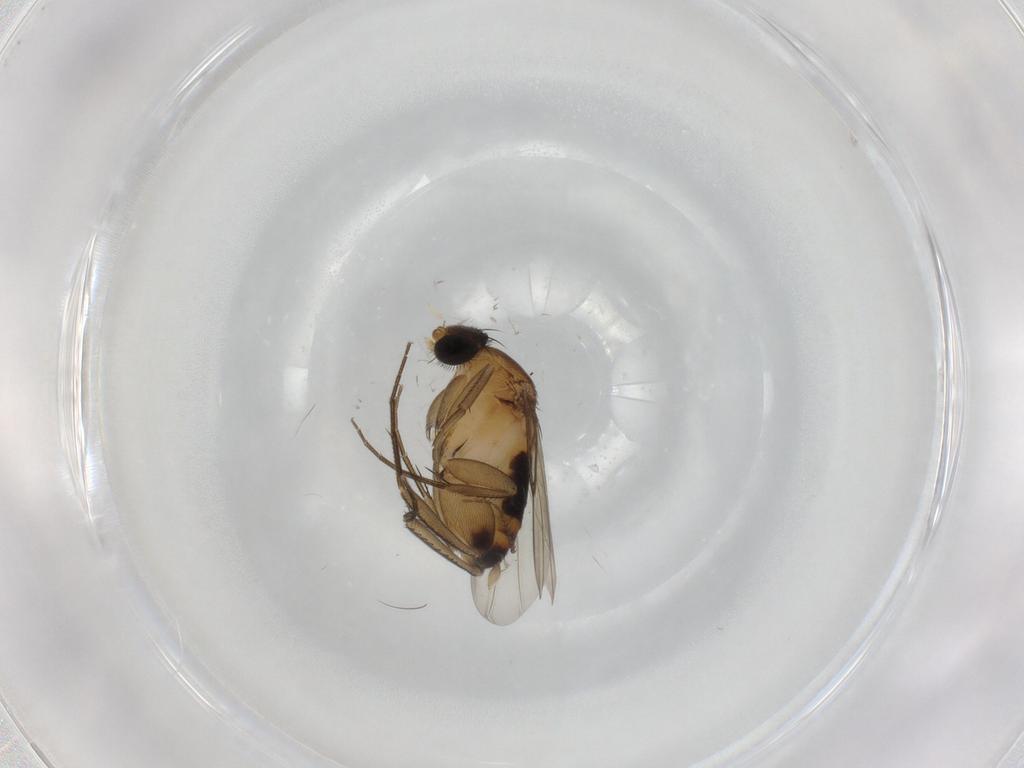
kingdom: Animalia
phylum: Arthropoda
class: Insecta
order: Diptera
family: Phoridae
